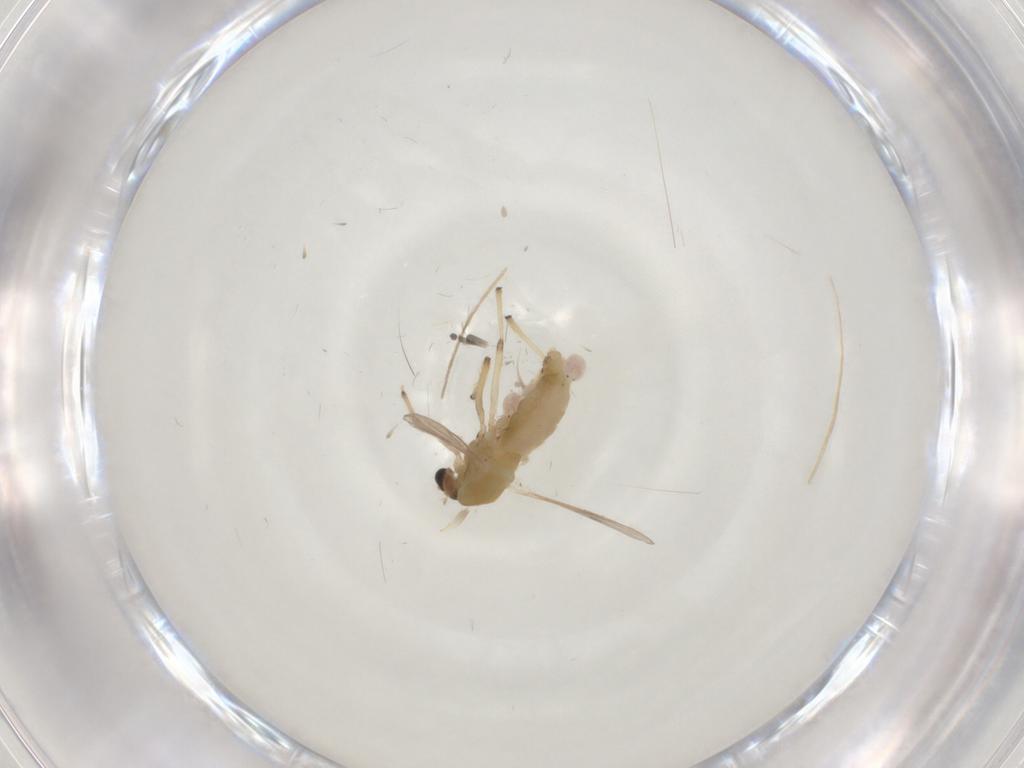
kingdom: Animalia
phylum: Arthropoda
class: Insecta
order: Diptera
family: Chironomidae
